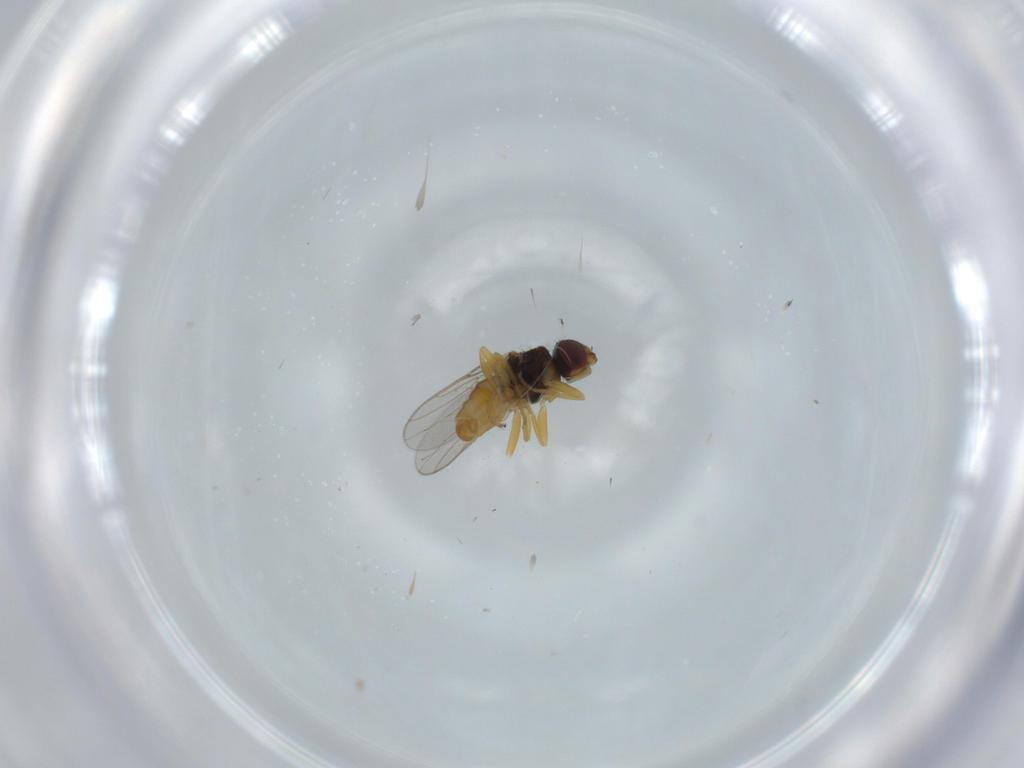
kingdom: Animalia
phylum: Arthropoda
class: Insecta
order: Diptera
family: Chloropidae
